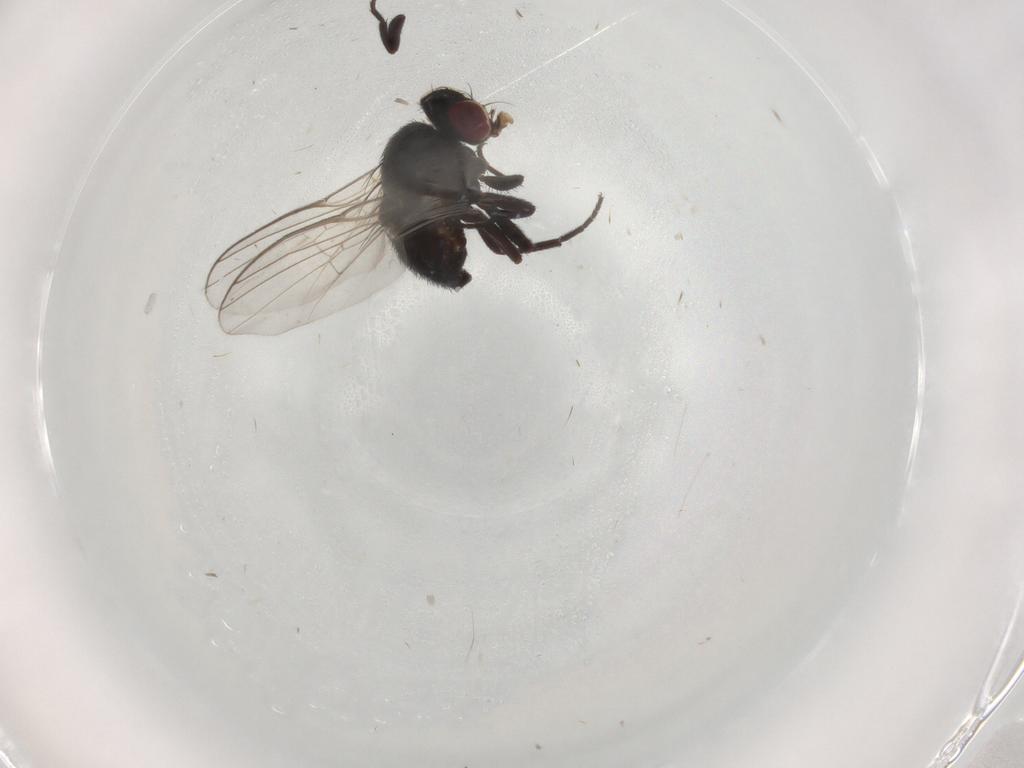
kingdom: Animalia
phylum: Arthropoda
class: Insecta
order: Diptera
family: Agromyzidae
